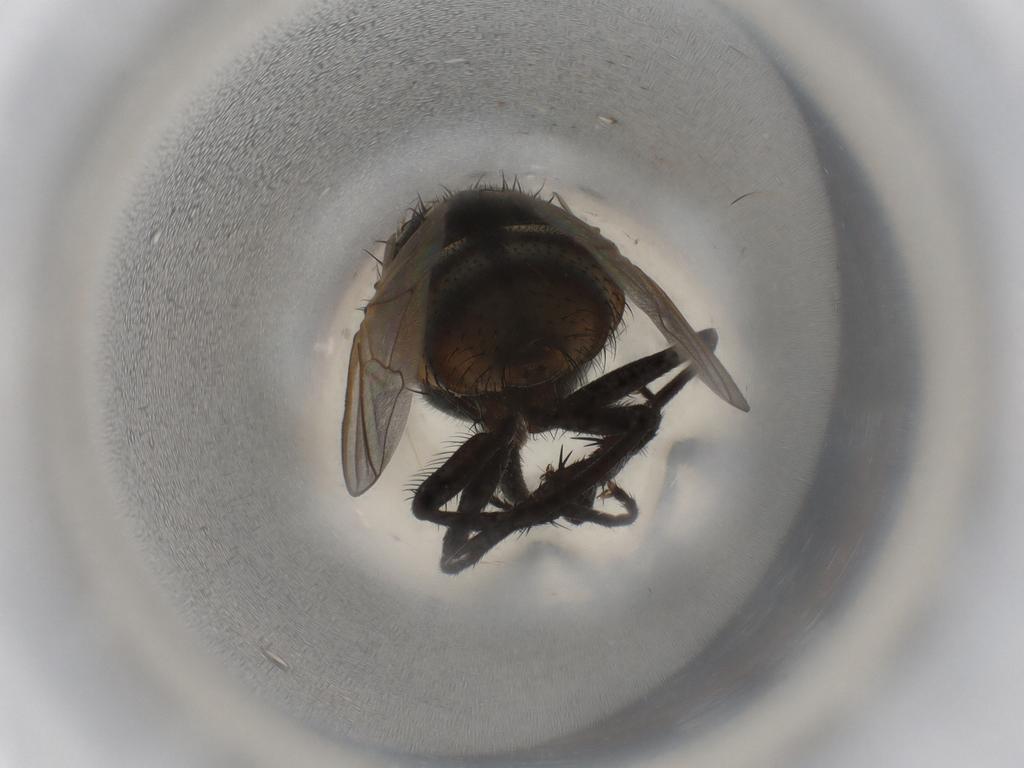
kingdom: Animalia
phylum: Arthropoda
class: Insecta
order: Diptera
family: Muscidae
